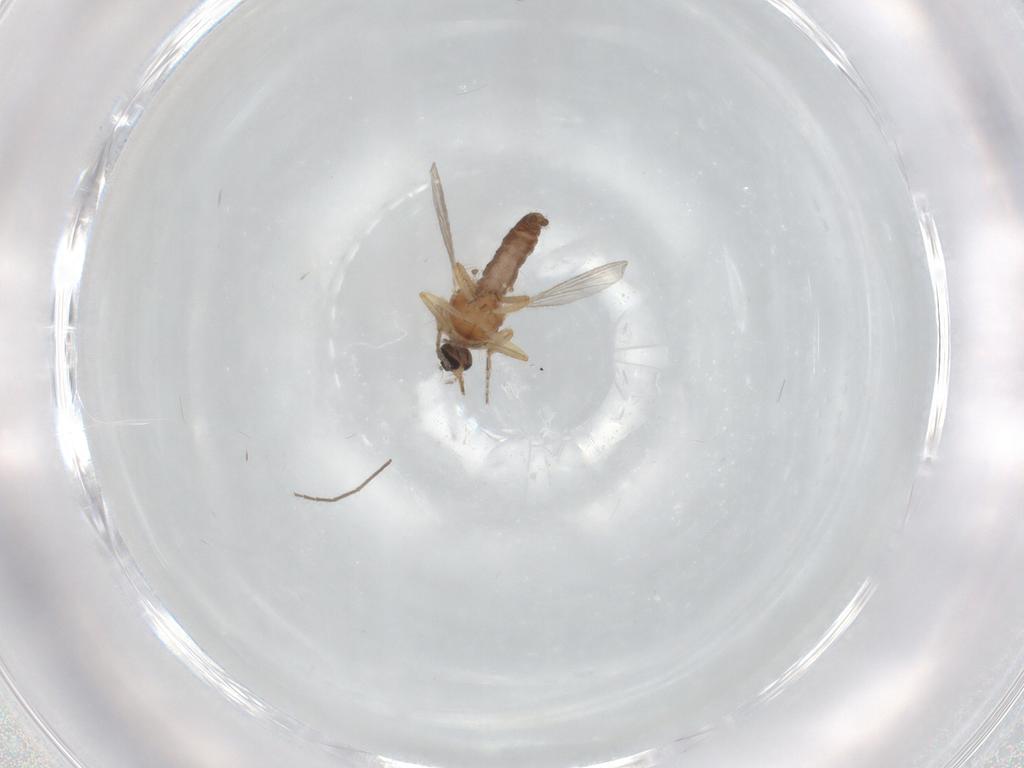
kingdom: Animalia
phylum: Arthropoda
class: Insecta
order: Diptera
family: Ceratopogonidae
